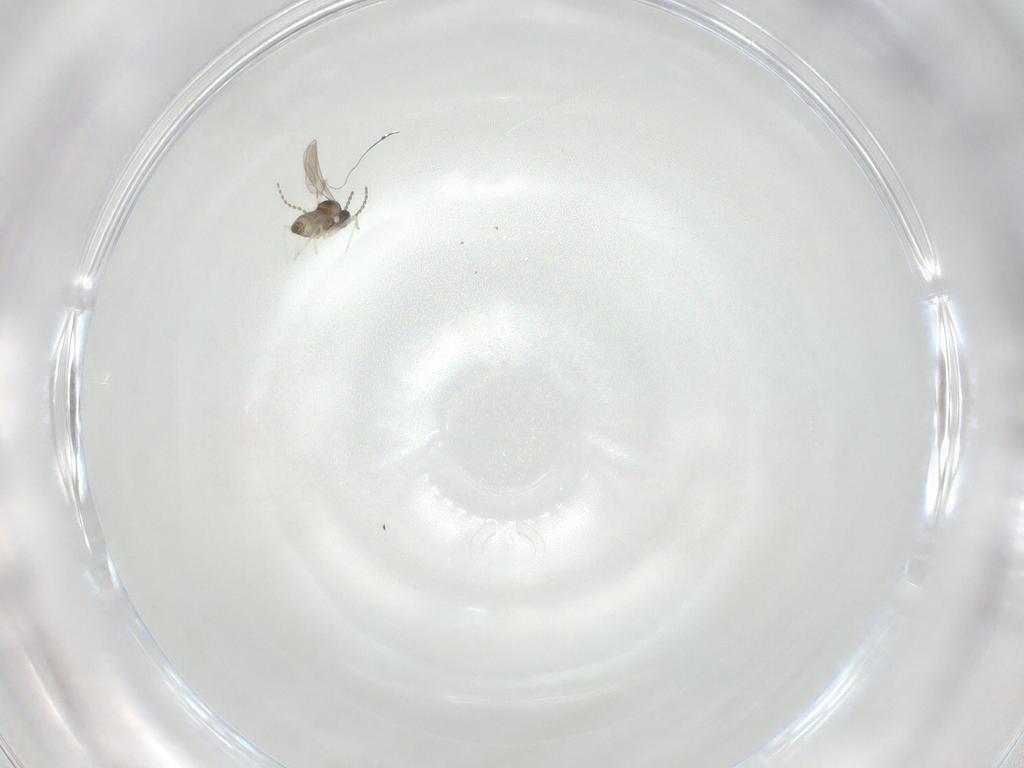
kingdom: Animalia
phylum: Arthropoda
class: Insecta
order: Diptera
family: Cecidomyiidae
